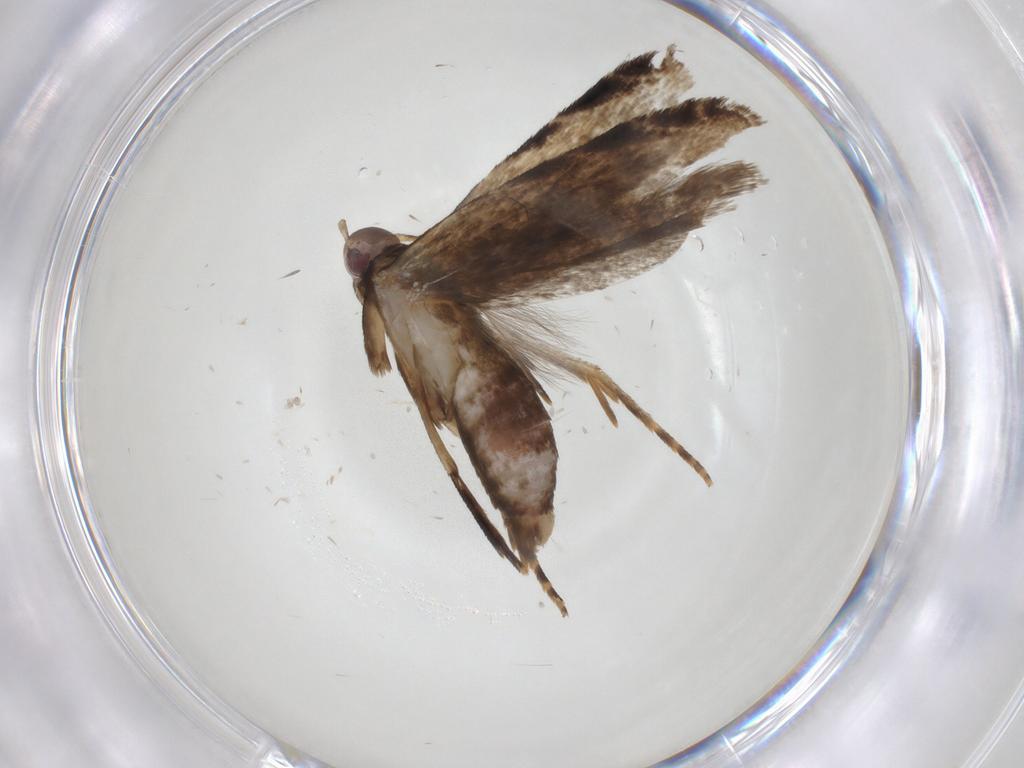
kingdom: Animalia
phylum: Arthropoda
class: Insecta
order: Lepidoptera
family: Gelechiidae
